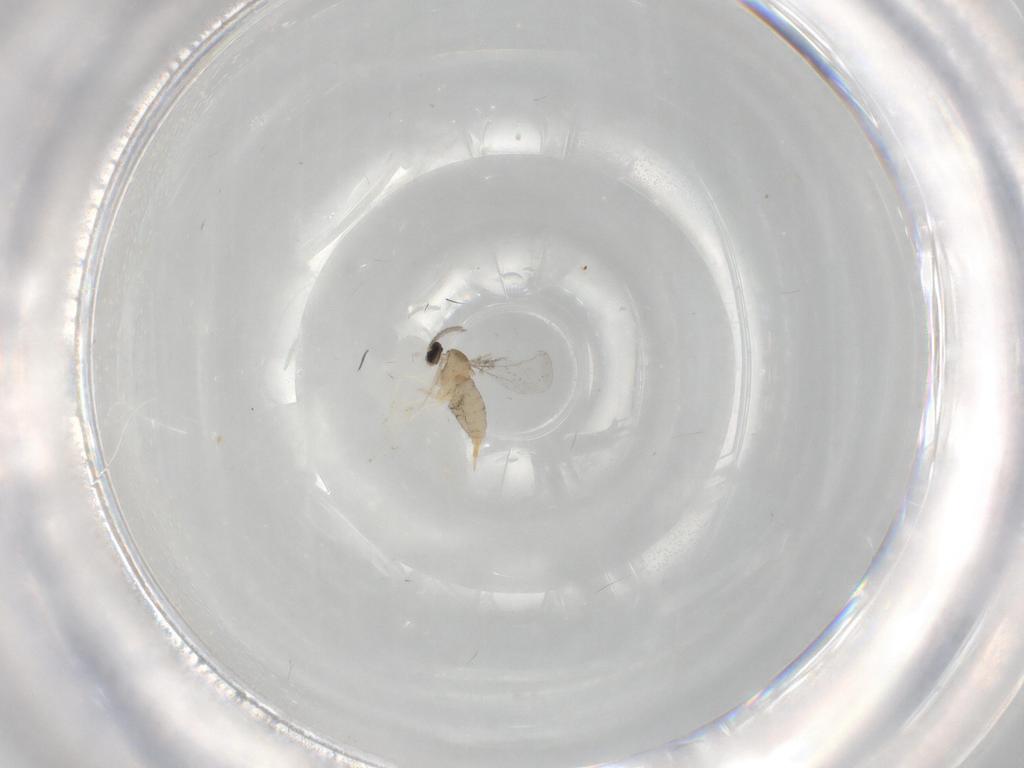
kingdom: Animalia
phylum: Arthropoda
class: Insecta
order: Diptera
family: Cecidomyiidae
